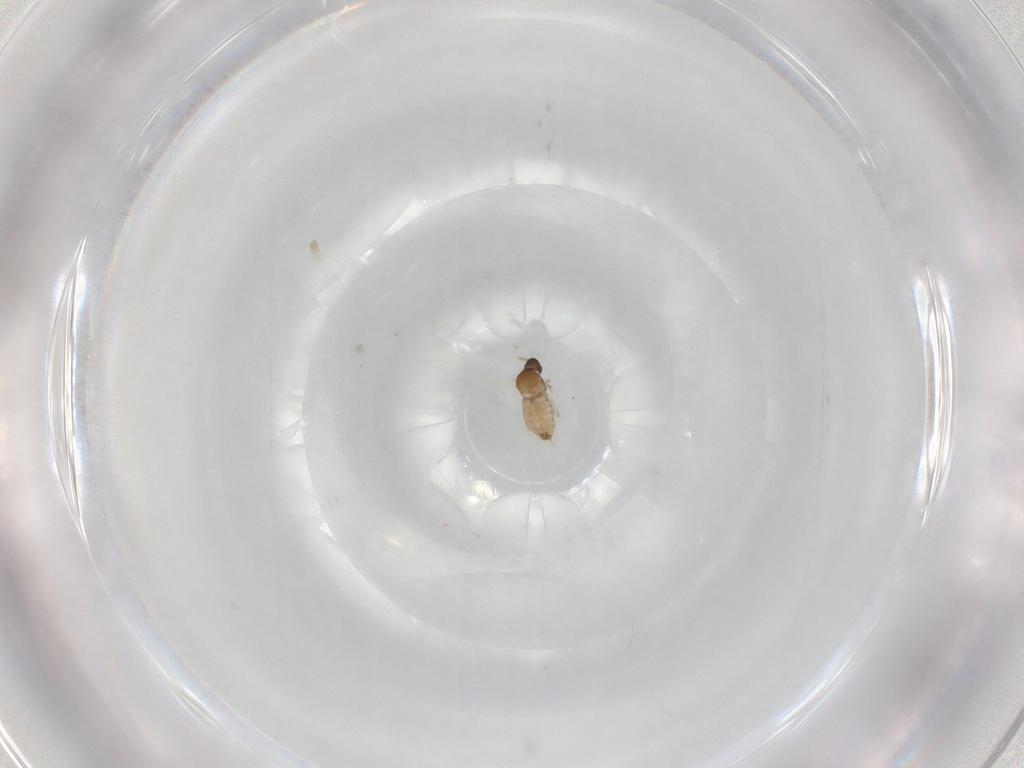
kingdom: Animalia
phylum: Arthropoda
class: Insecta
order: Diptera
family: Cecidomyiidae
